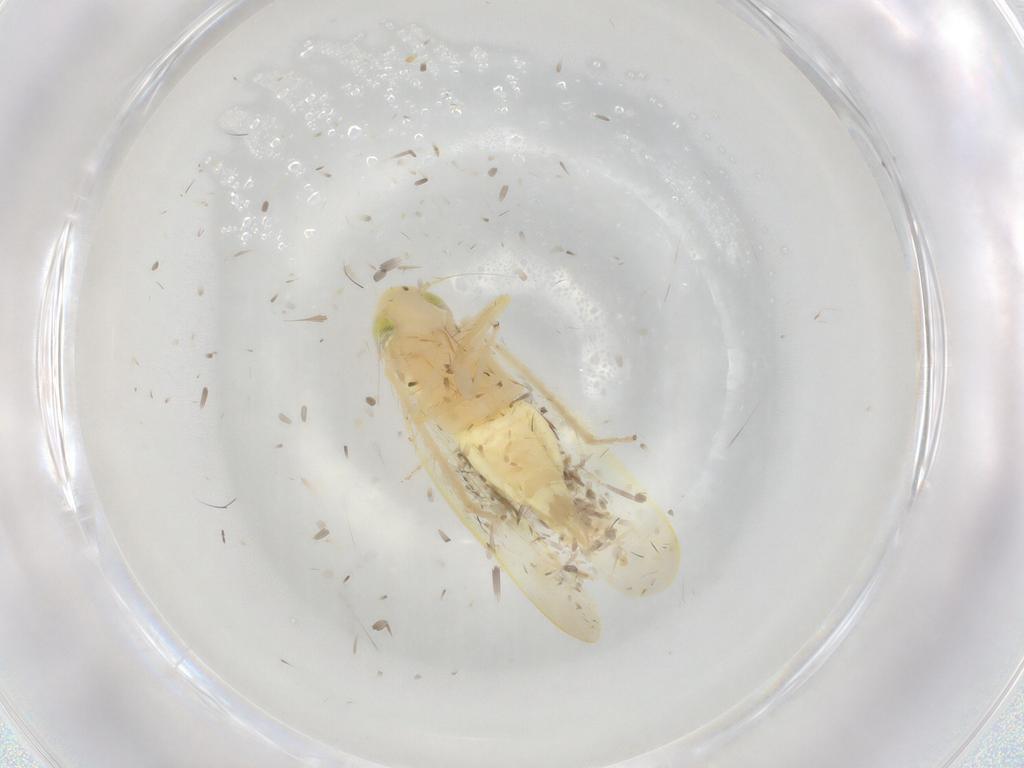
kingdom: Animalia
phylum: Arthropoda
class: Insecta
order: Hemiptera
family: Cicadellidae
